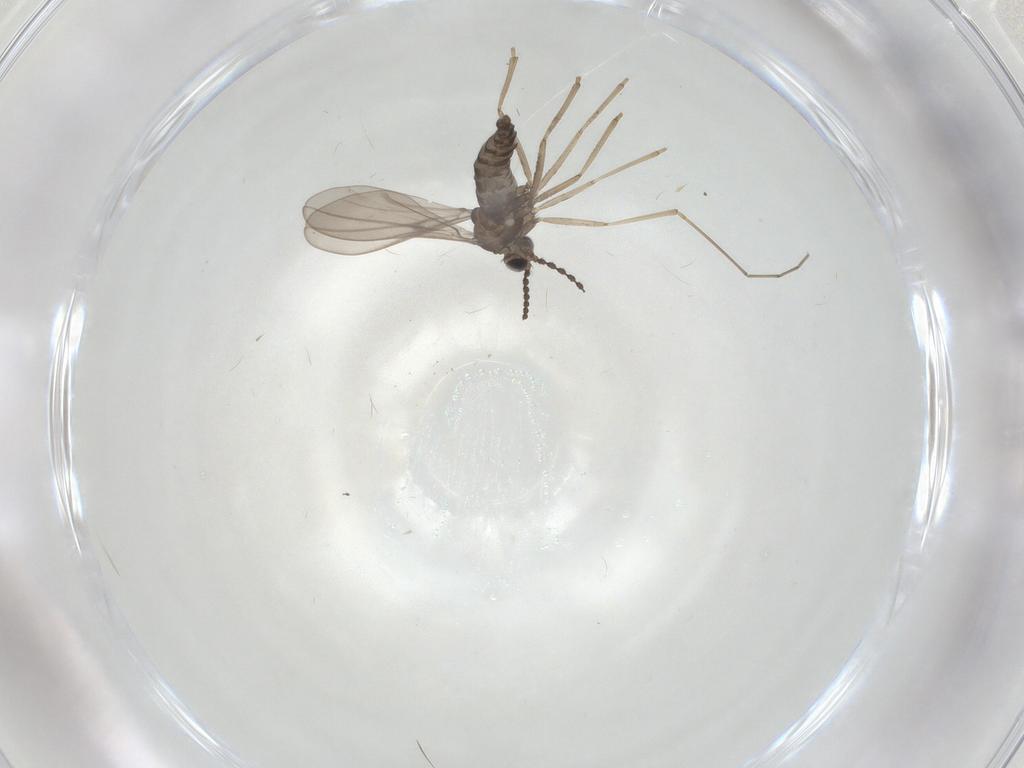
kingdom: Animalia
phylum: Arthropoda
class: Insecta
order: Diptera
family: Cecidomyiidae
